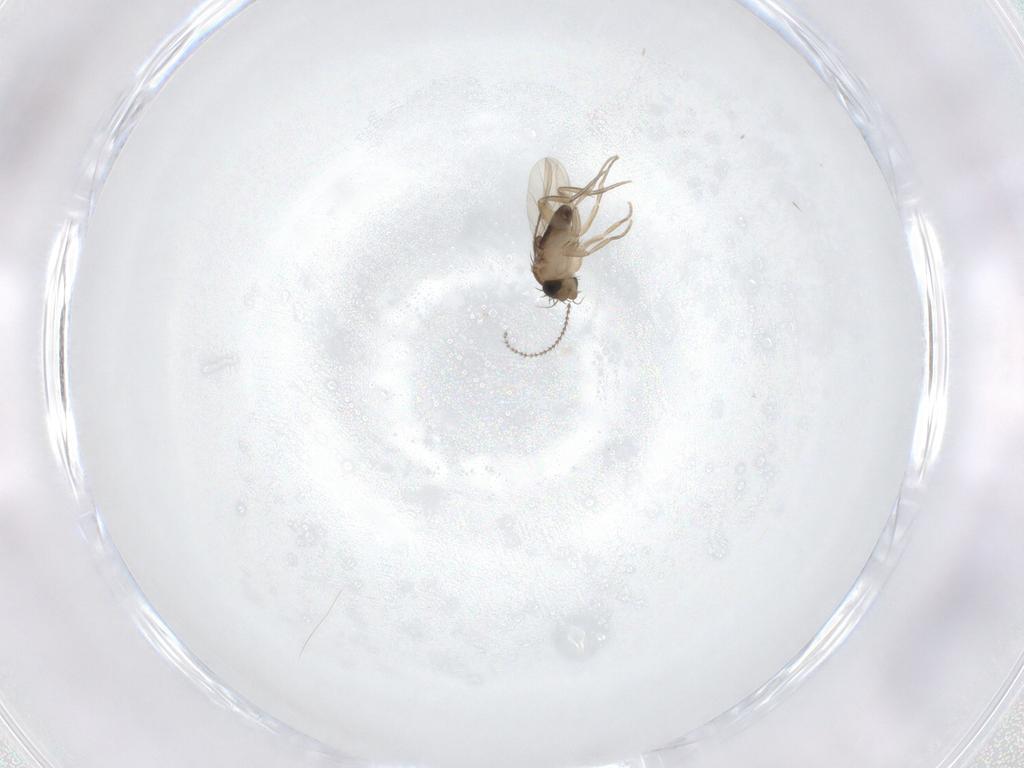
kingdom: Animalia
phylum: Arthropoda
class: Insecta
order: Diptera
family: Phoridae
